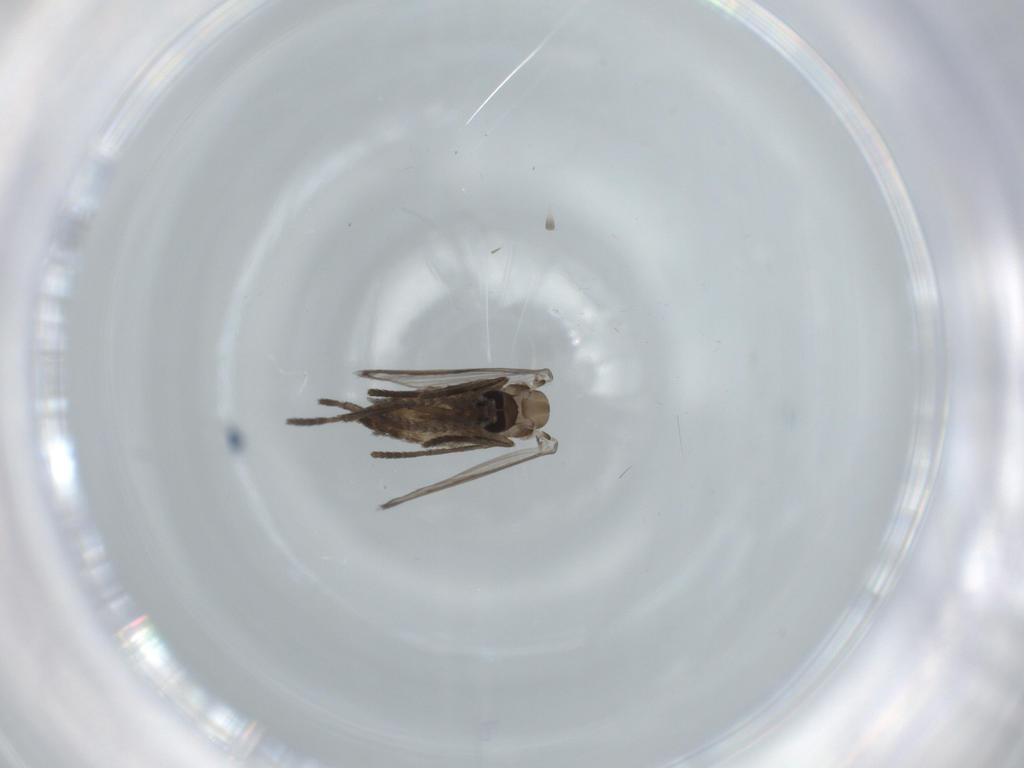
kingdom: Animalia
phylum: Arthropoda
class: Insecta
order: Diptera
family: Psychodidae
